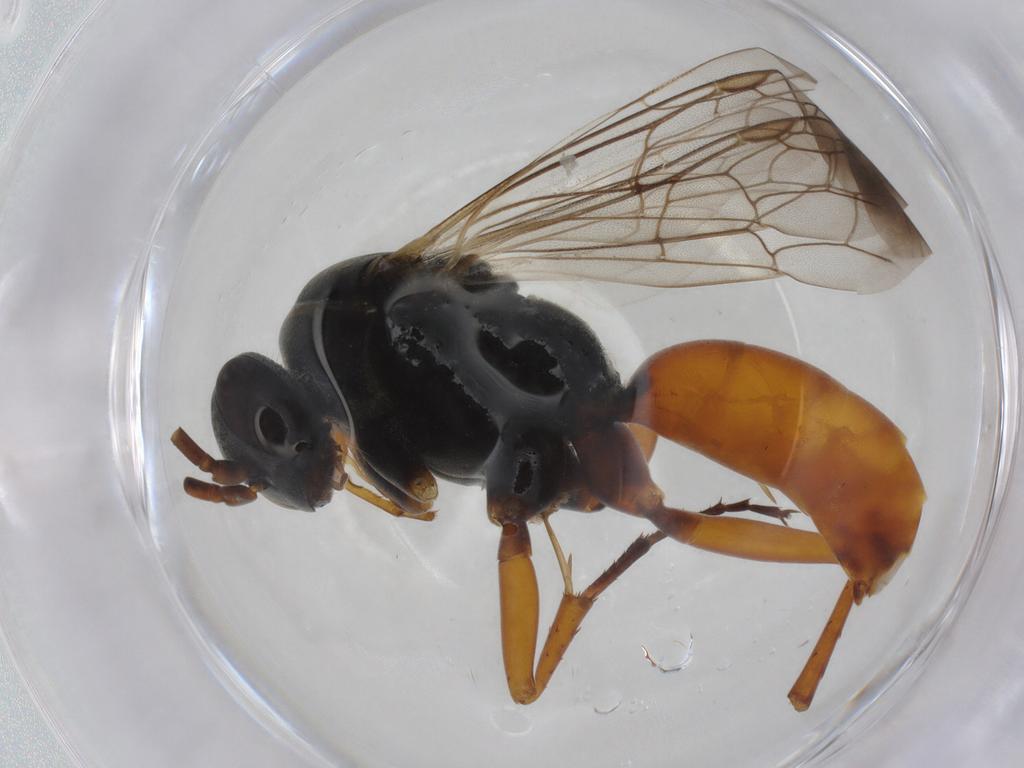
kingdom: Animalia
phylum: Arthropoda
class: Insecta
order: Hymenoptera
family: Pompilidae
